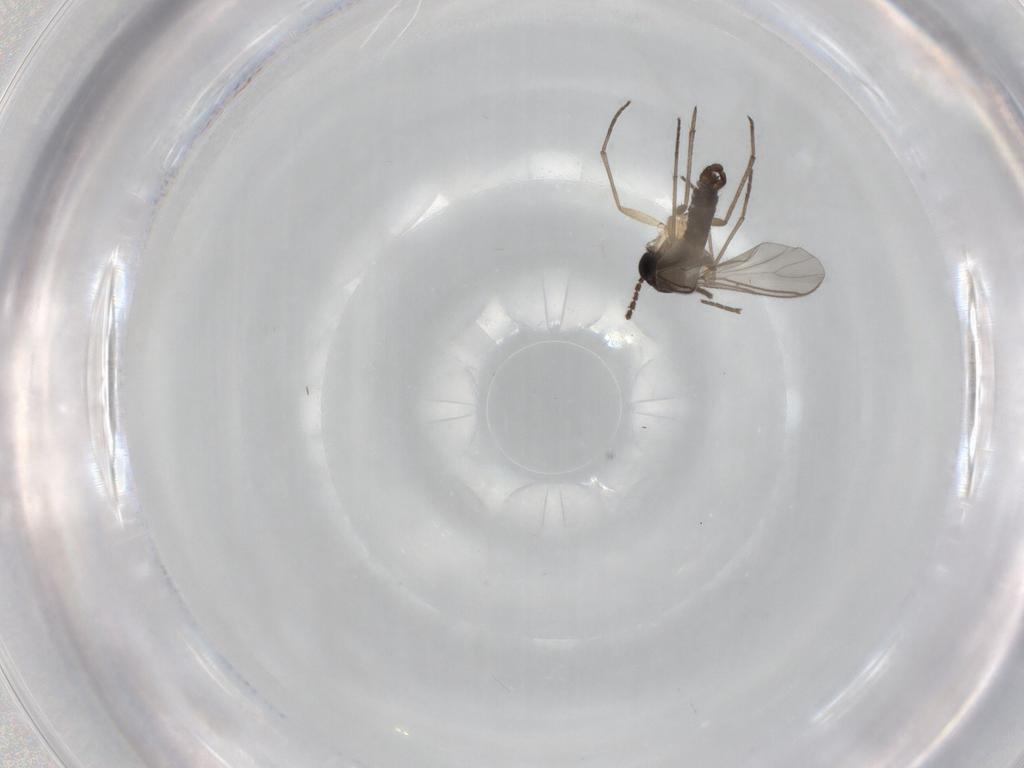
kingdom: Animalia
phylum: Arthropoda
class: Insecta
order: Diptera
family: Sciaridae
